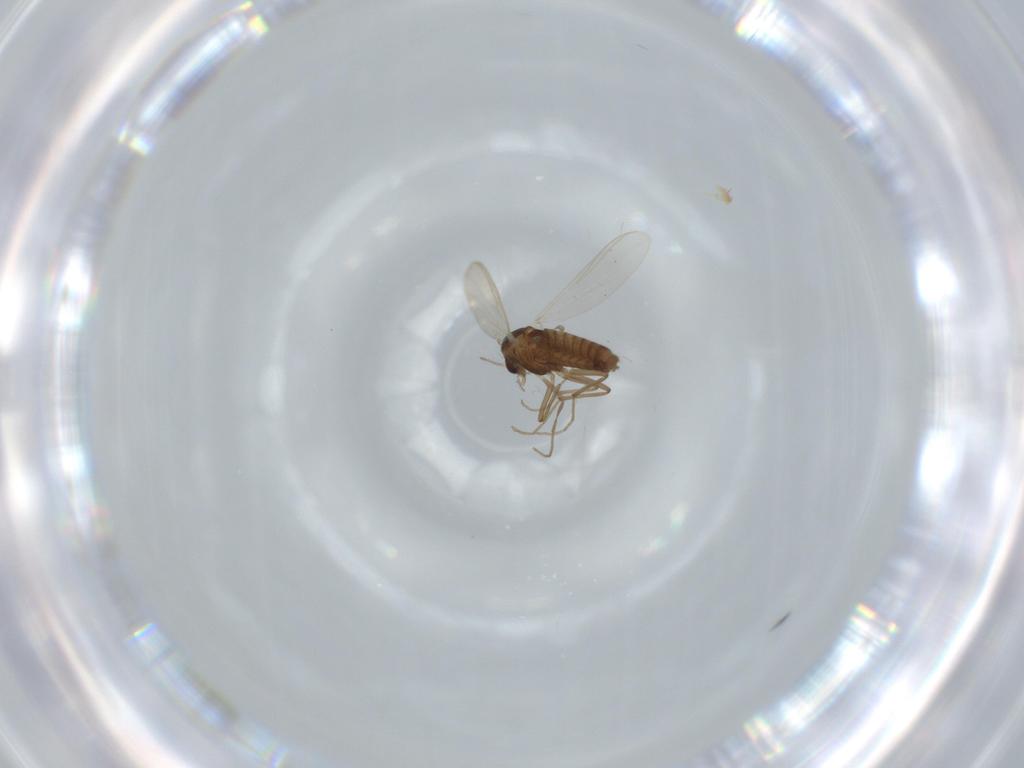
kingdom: Animalia
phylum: Arthropoda
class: Insecta
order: Diptera
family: Chironomidae
